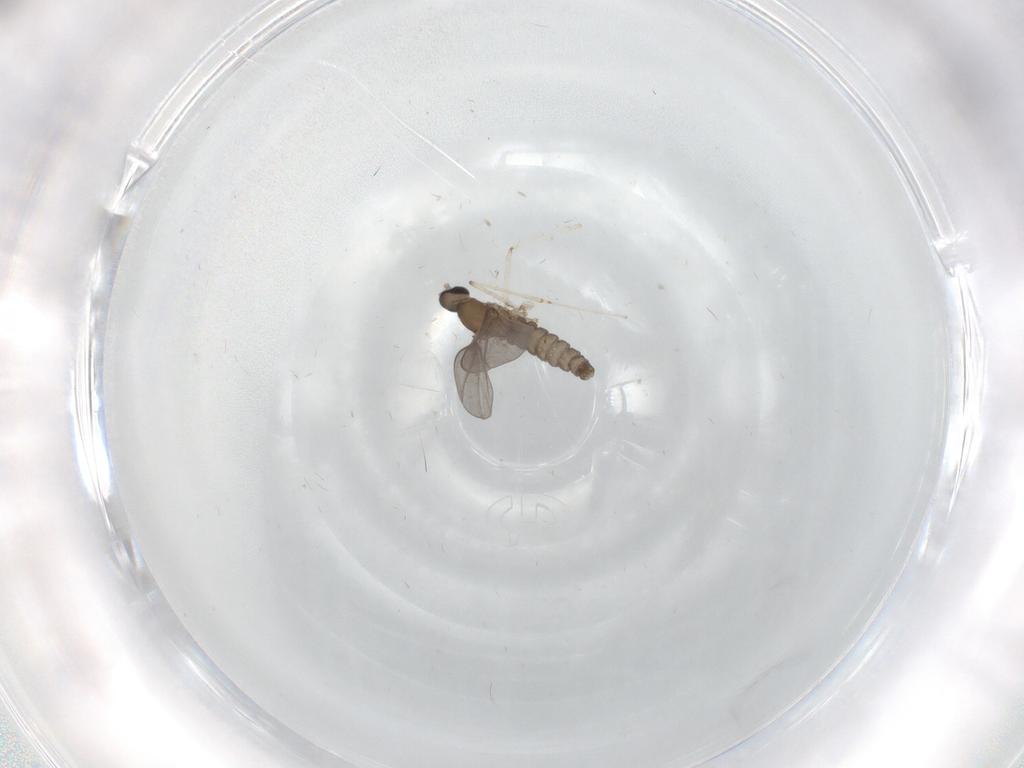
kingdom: Animalia
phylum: Arthropoda
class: Insecta
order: Diptera
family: Cecidomyiidae
